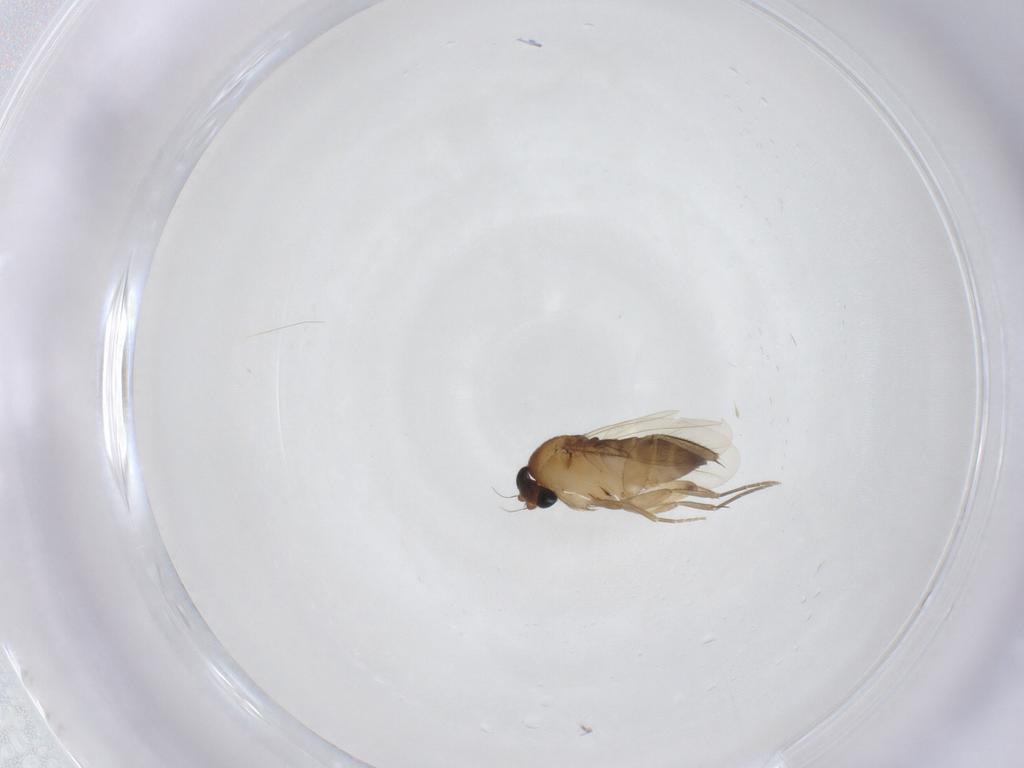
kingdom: Animalia
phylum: Arthropoda
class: Insecta
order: Diptera
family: Phoridae
